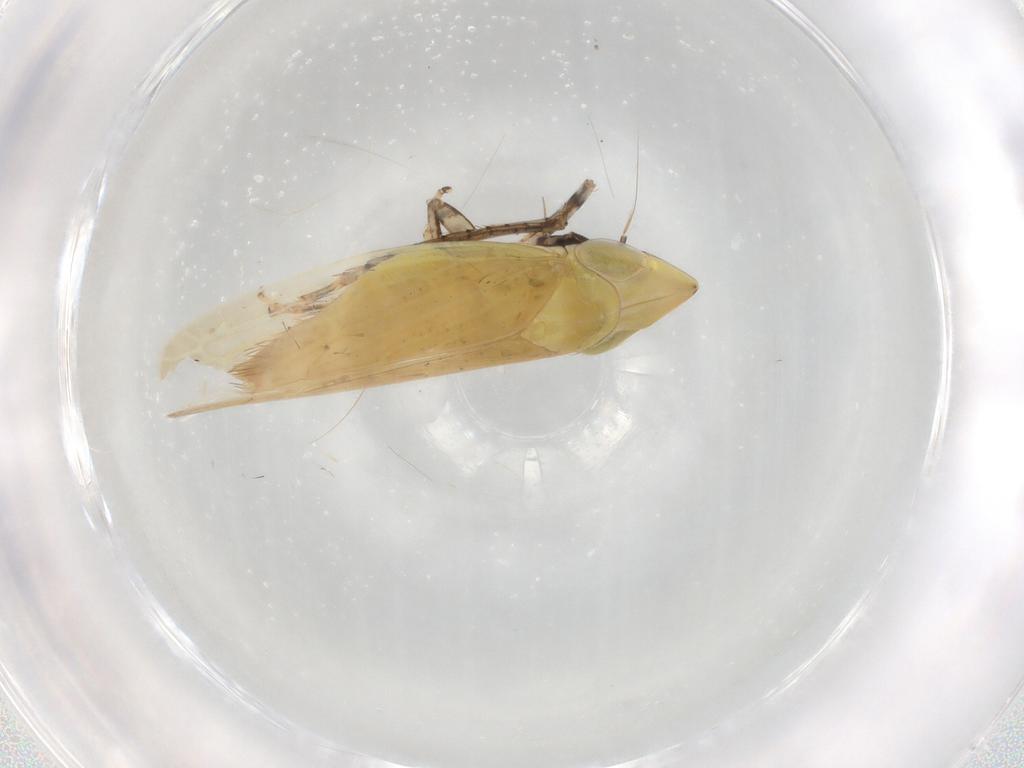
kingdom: Animalia
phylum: Arthropoda
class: Insecta
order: Hemiptera
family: Cicadellidae
